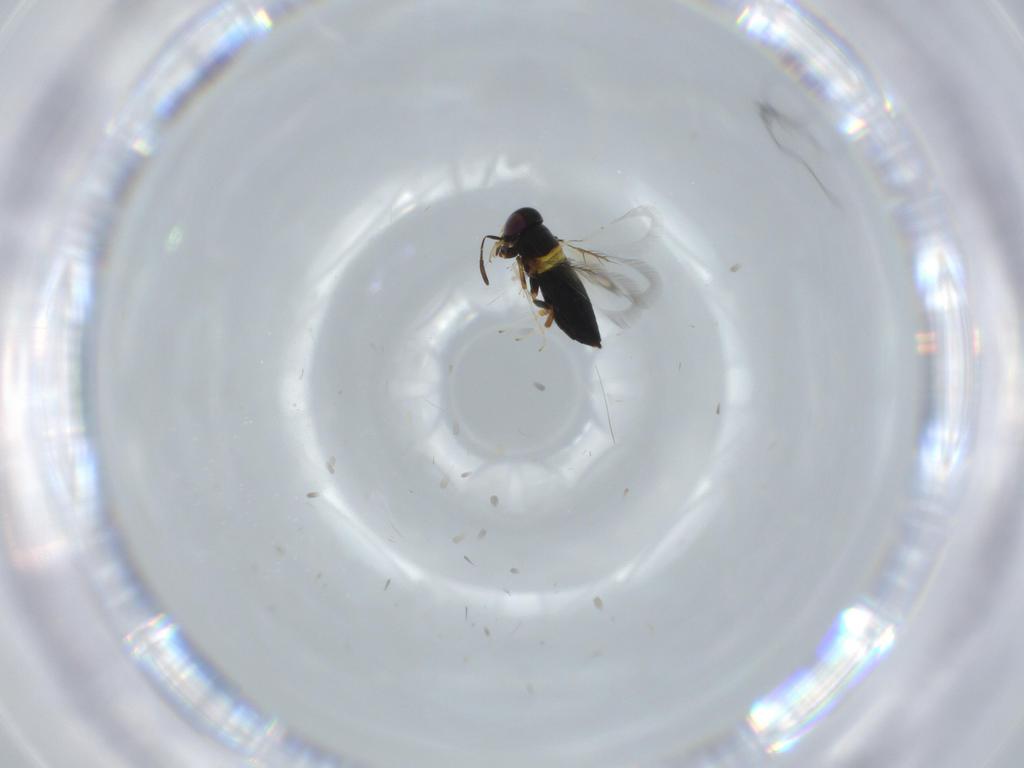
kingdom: Animalia
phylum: Arthropoda
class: Insecta
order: Hymenoptera
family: Signiphoridae
